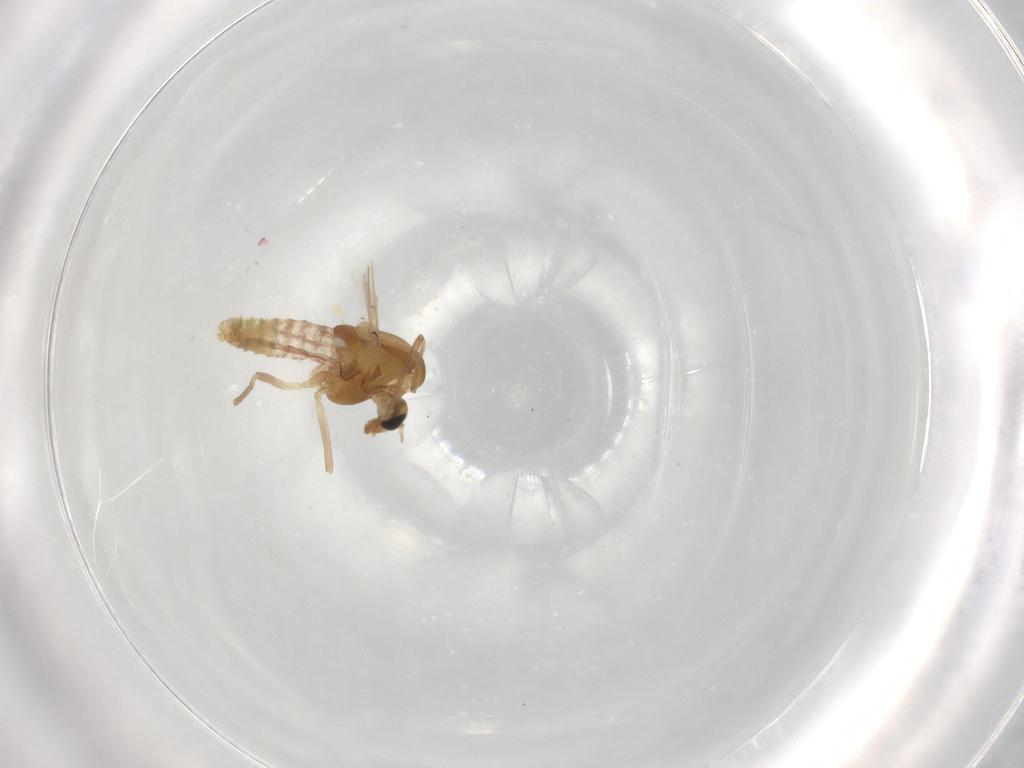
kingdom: Animalia
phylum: Arthropoda
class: Insecta
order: Diptera
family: Chironomidae
